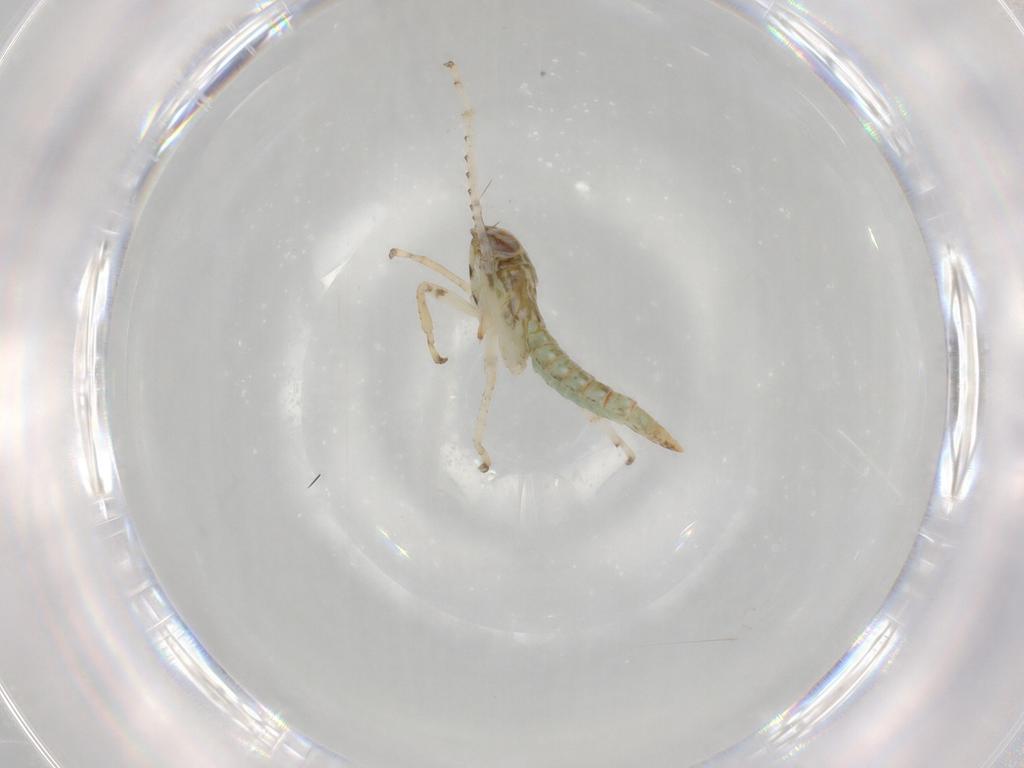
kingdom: Animalia
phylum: Arthropoda
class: Insecta
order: Hemiptera
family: Cicadellidae
